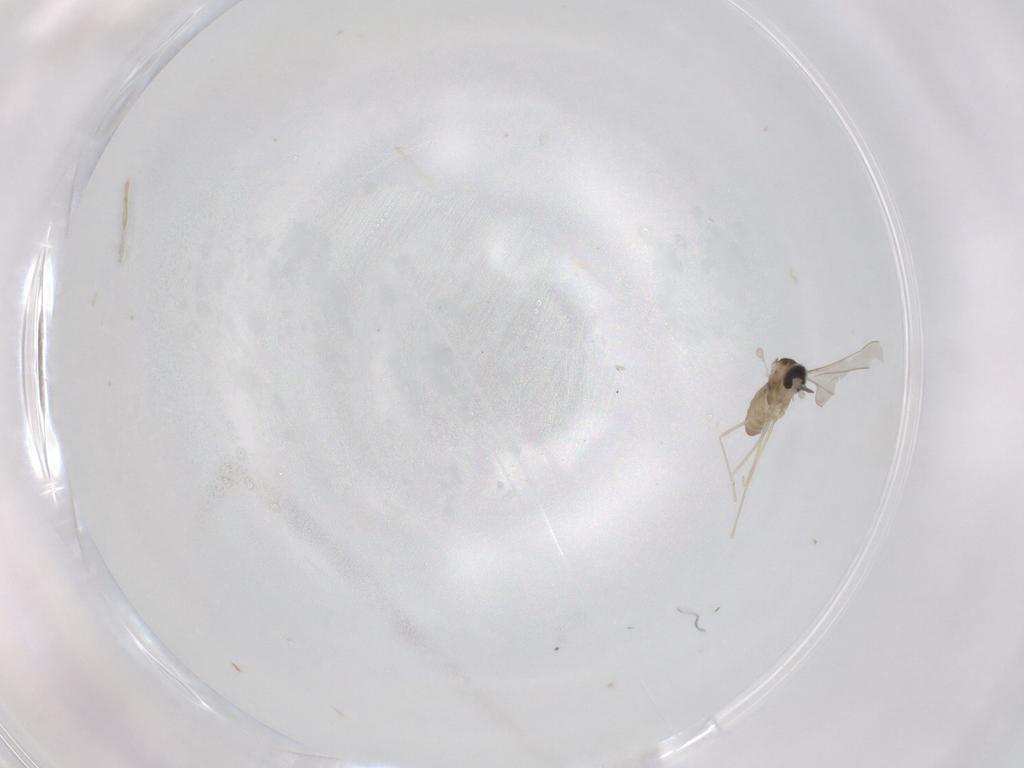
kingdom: Animalia
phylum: Arthropoda
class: Insecta
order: Diptera
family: Cecidomyiidae
